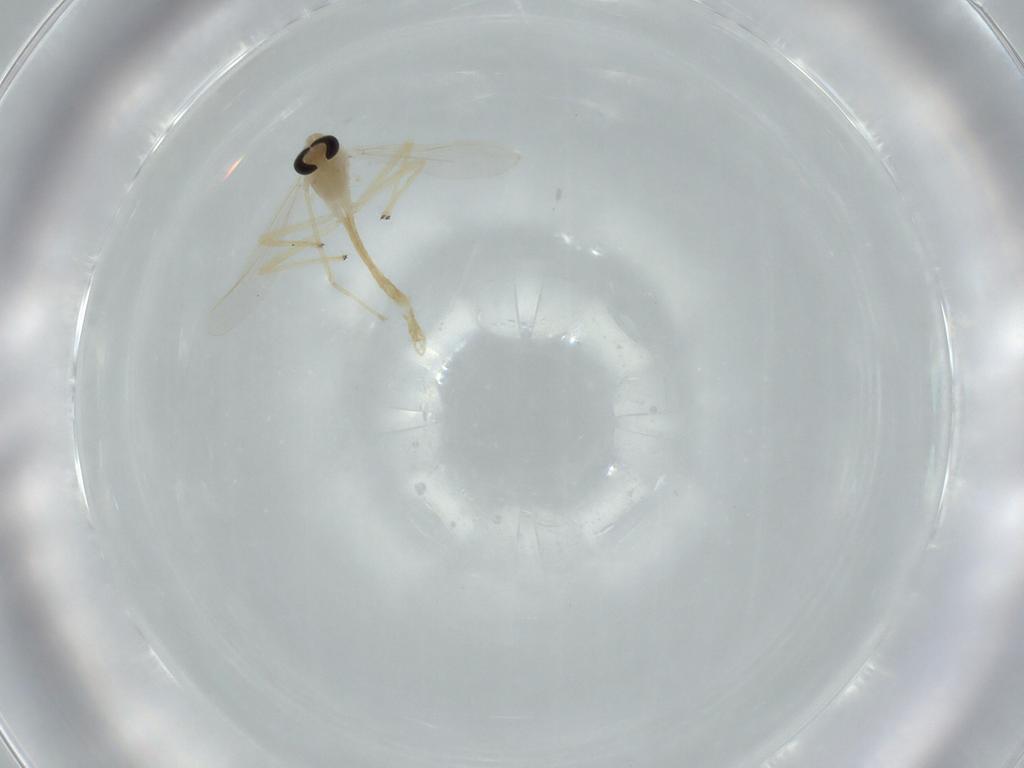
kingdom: Animalia
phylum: Arthropoda
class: Insecta
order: Diptera
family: Chironomidae
